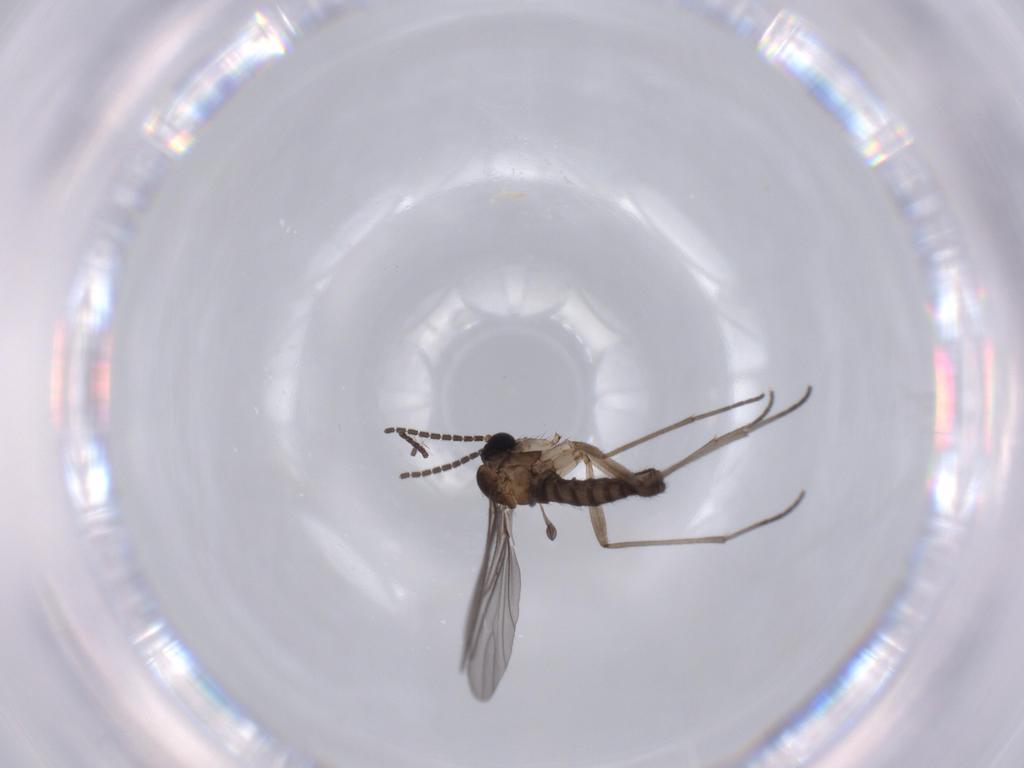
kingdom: Animalia
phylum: Arthropoda
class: Insecta
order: Diptera
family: Sciaridae
